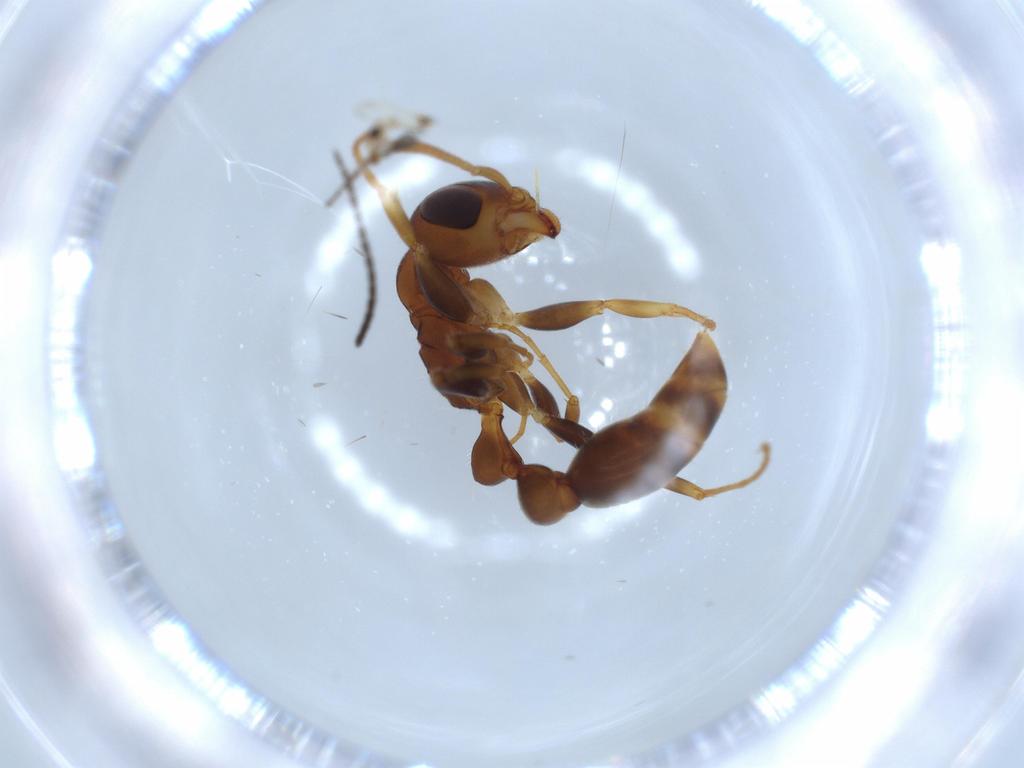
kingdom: Animalia
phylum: Arthropoda
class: Insecta
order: Hymenoptera
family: Formicidae
